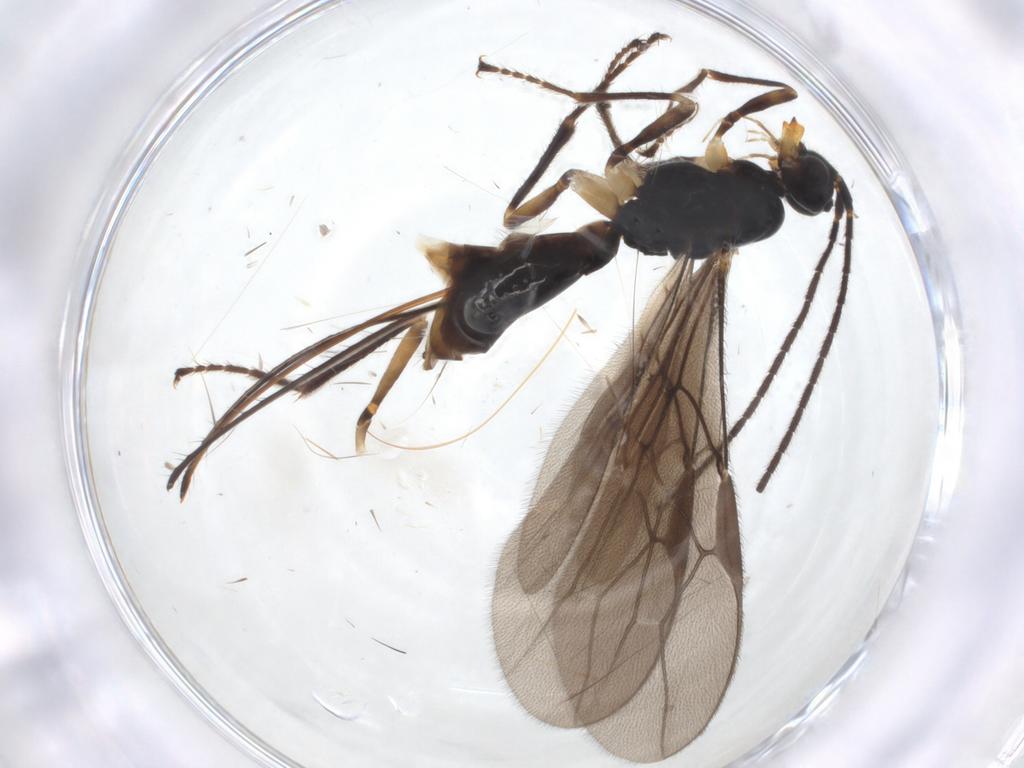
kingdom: Animalia
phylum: Arthropoda
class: Insecta
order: Hymenoptera
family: Braconidae
